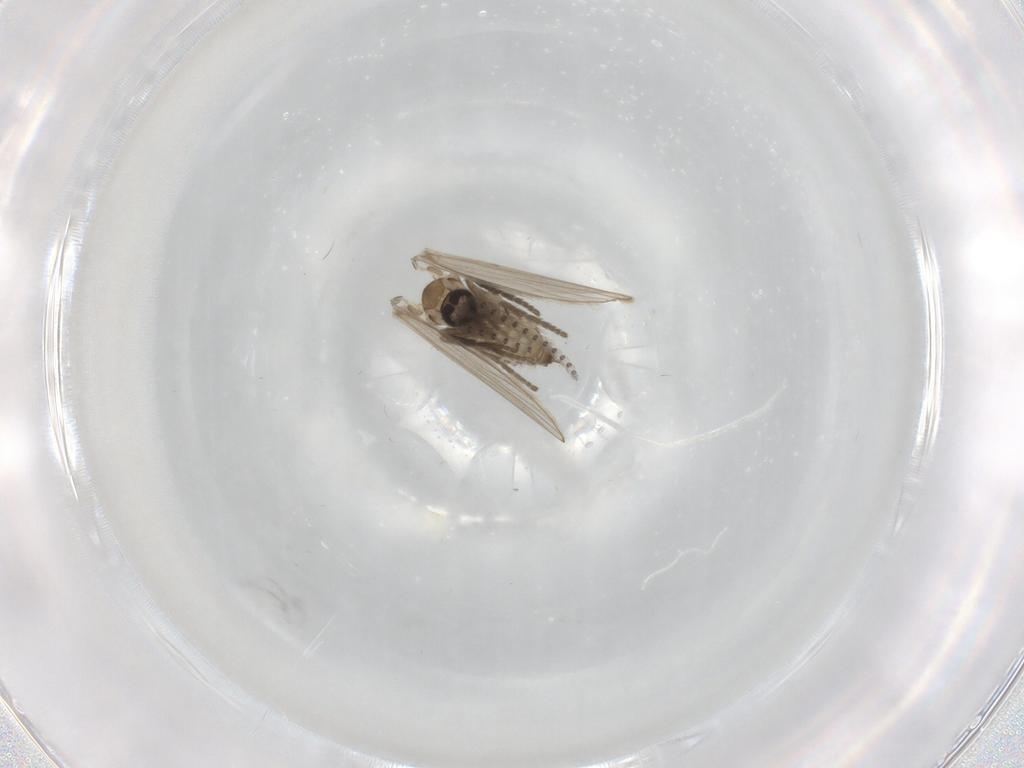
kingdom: Animalia
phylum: Arthropoda
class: Insecta
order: Diptera
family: Psychodidae
